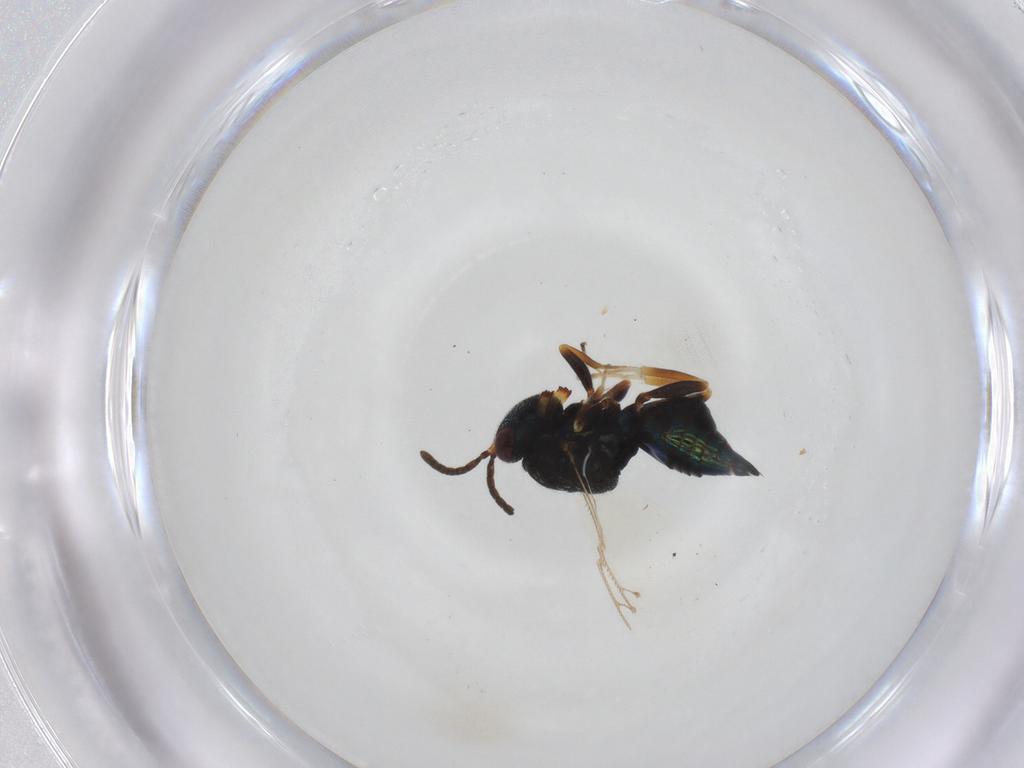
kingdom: Animalia
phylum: Arthropoda
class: Insecta
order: Hymenoptera
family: Pteromalidae
